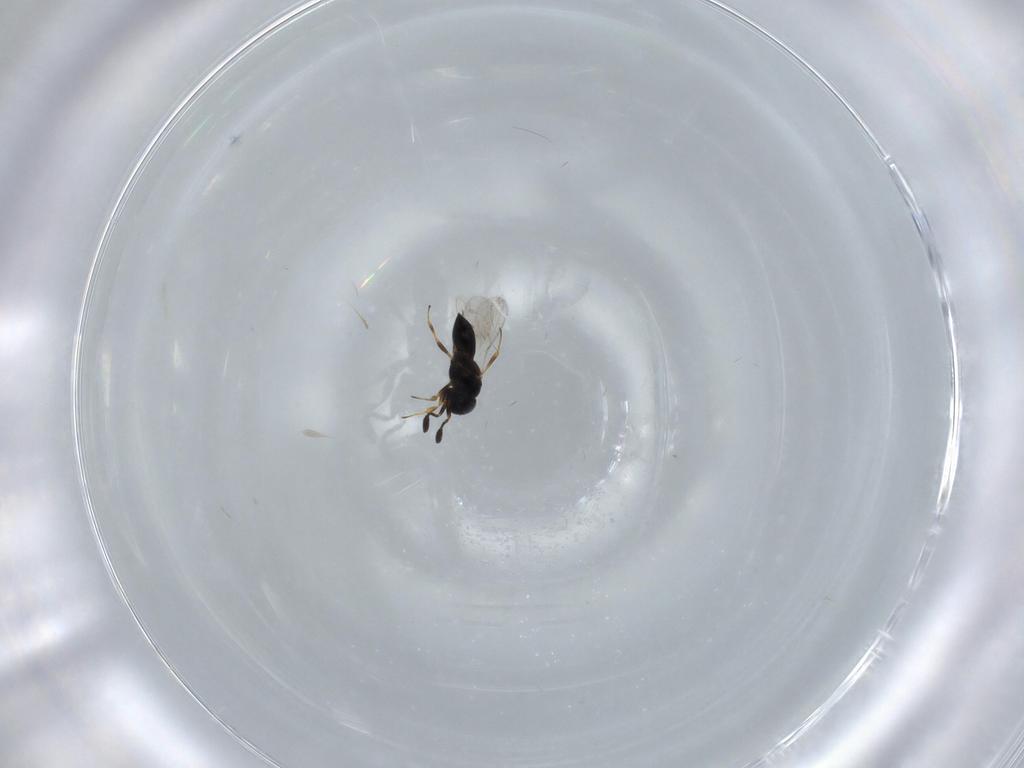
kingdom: Animalia
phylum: Arthropoda
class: Insecta
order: Hymenoptera
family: Scelionidae
